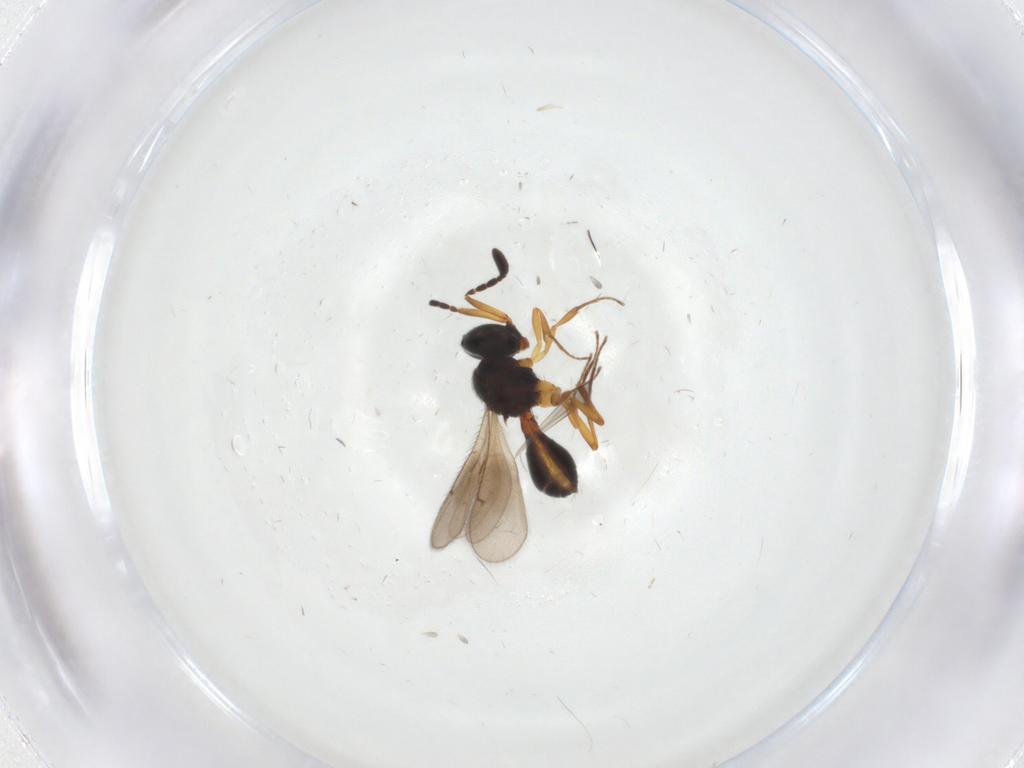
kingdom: Animalia
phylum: Arthropoda
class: Insecta
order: Hymenoptera
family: Scelionidae
